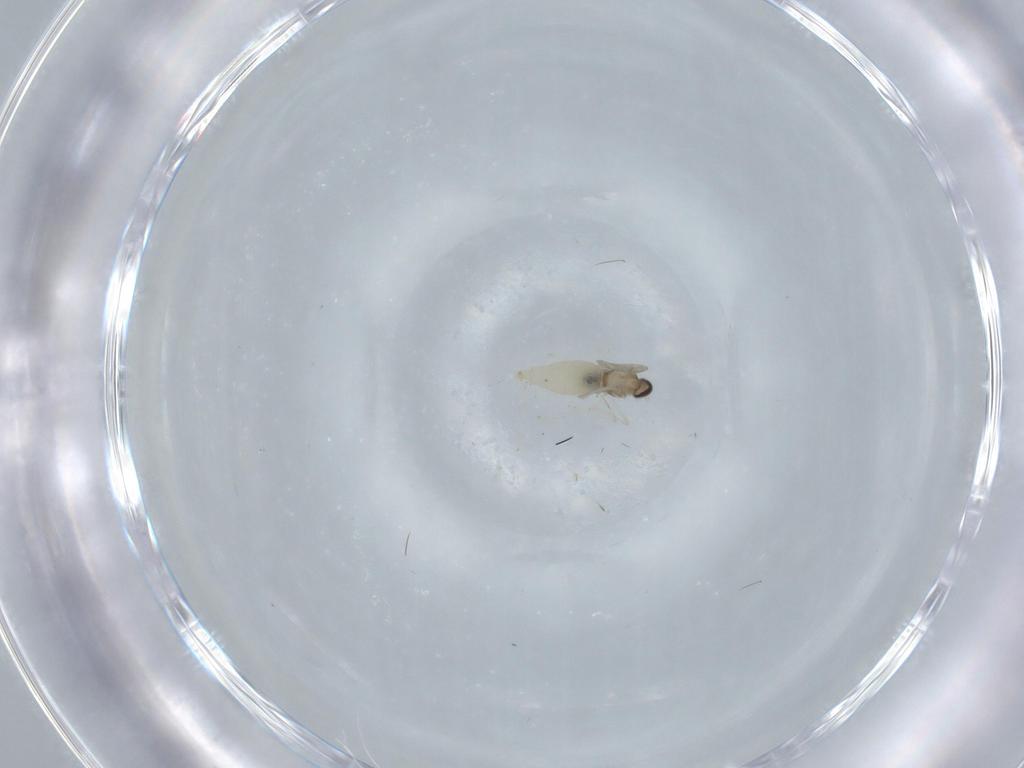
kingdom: Animalia
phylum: Arthropoda
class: Insecta
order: Diptera
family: Cecidomyiidae
